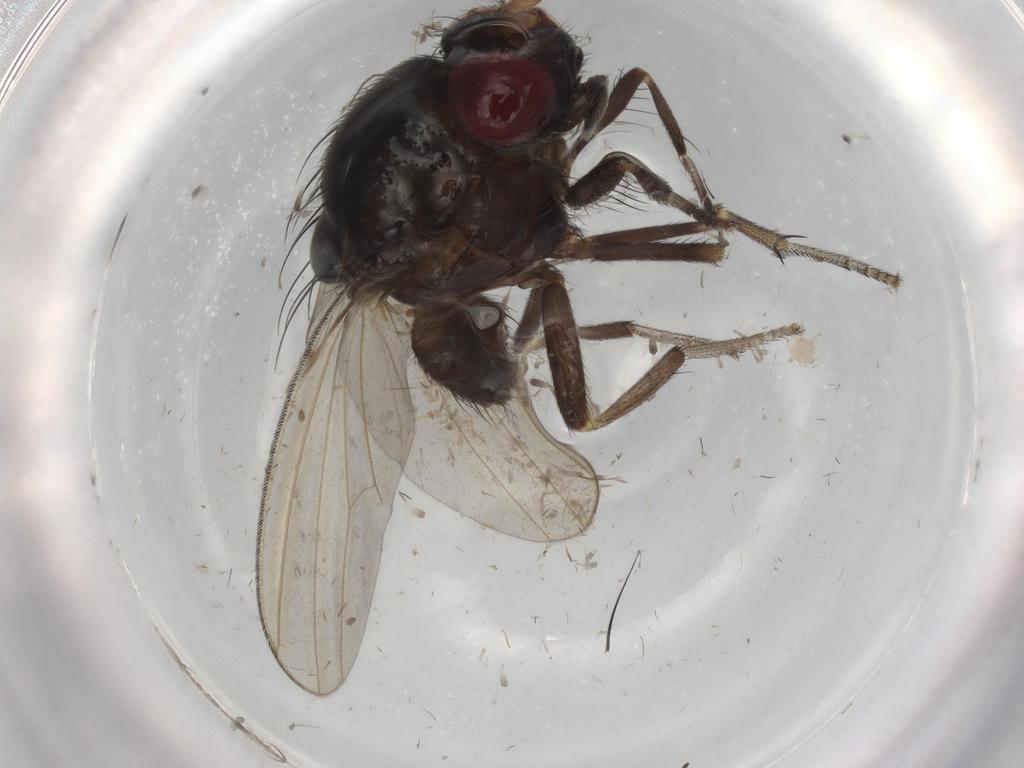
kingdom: Animalia
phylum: Arthropoda
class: Insecta
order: Diptera
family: Phoridae
